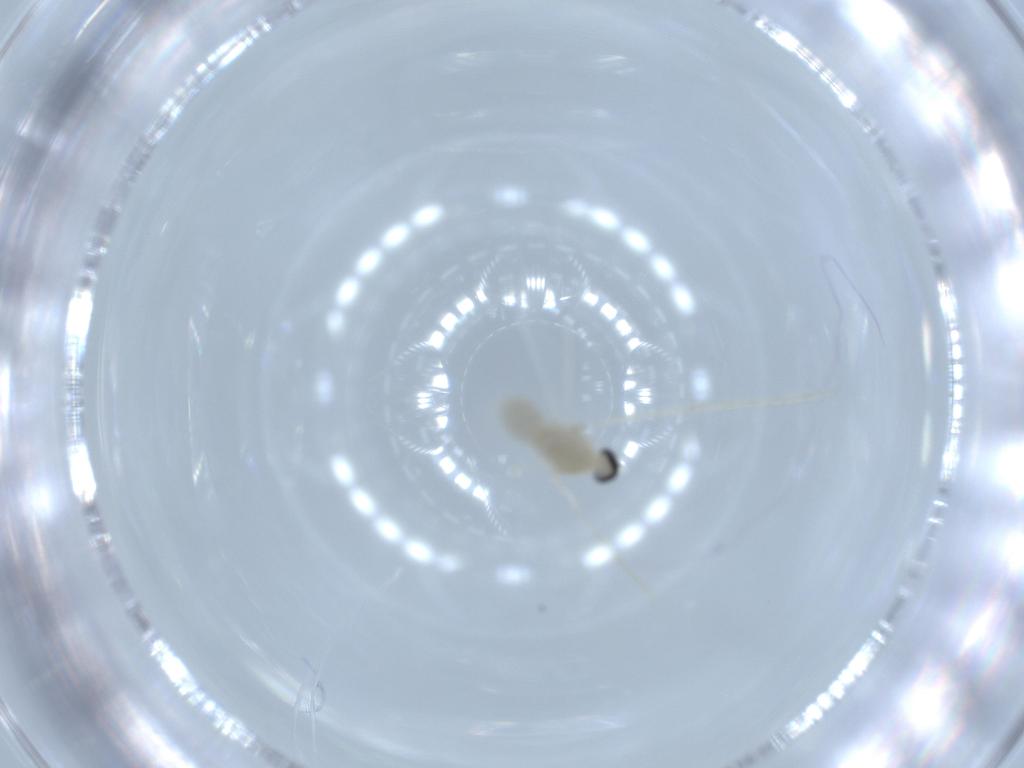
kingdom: Animalia
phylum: Arthropoda
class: Insecta
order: Diptera
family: Cecidomyiidae
